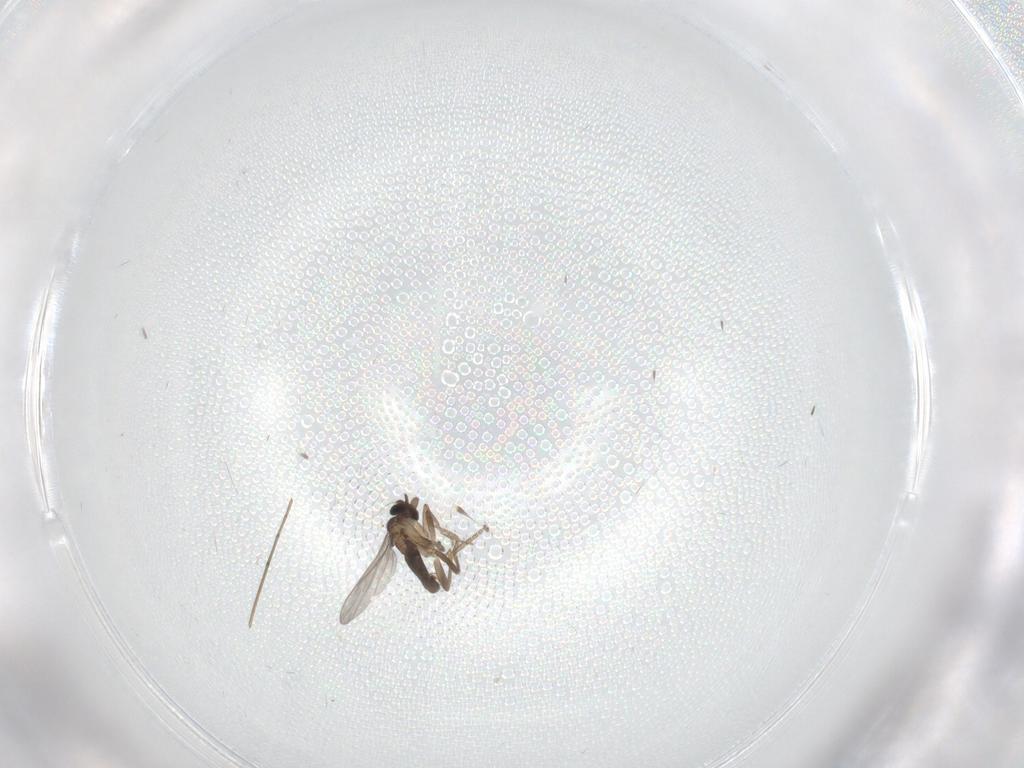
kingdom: Animalia
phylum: Arthropoda
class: Insecta
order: Diptera
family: Chironomidae
